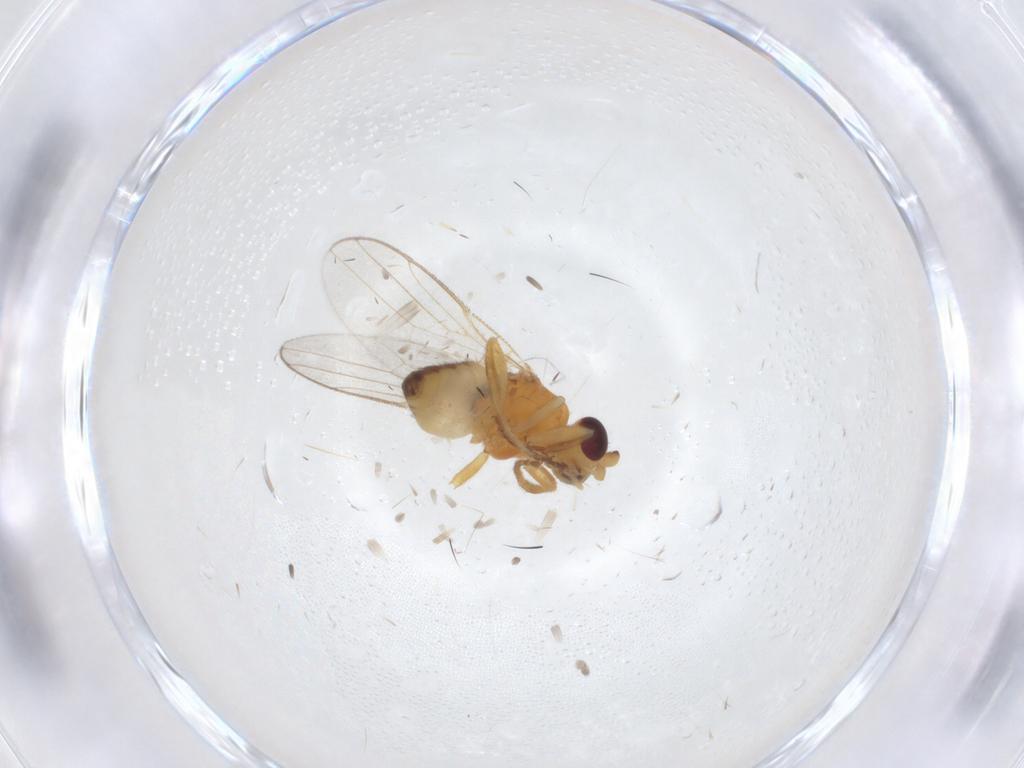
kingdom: Animalia
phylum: Arthropoda
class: Insecta
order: Diptera
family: Chloropidae
